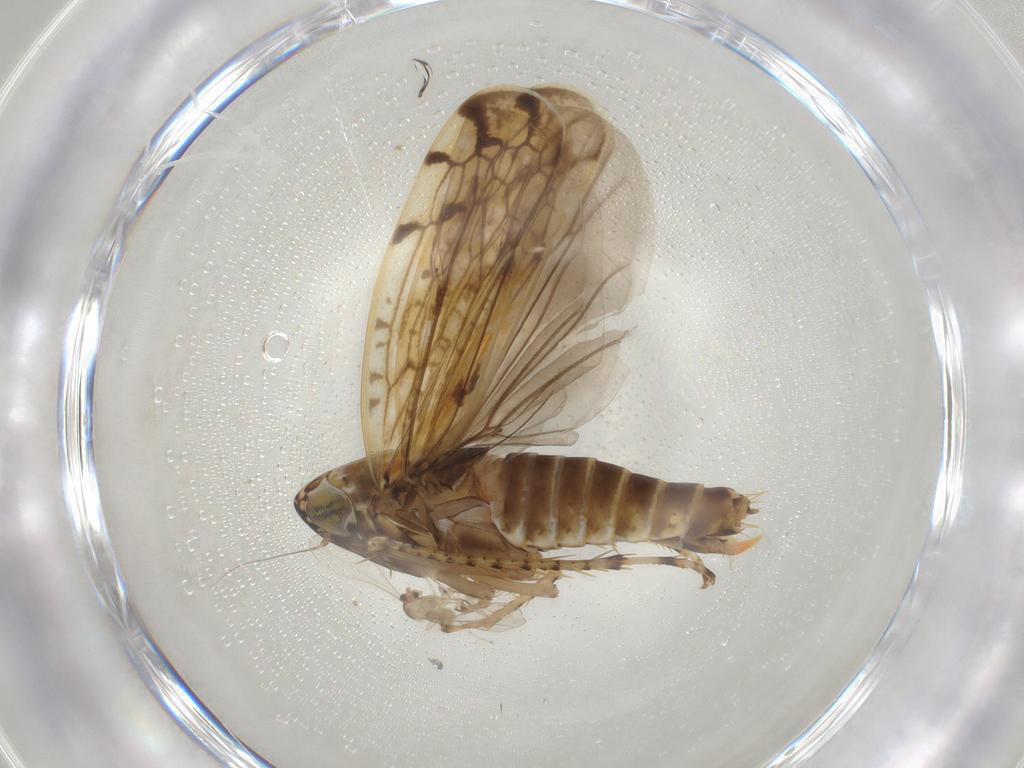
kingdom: Animalia
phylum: Arthropoda
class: Insecta
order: Hemiptera
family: Cicadellidae
